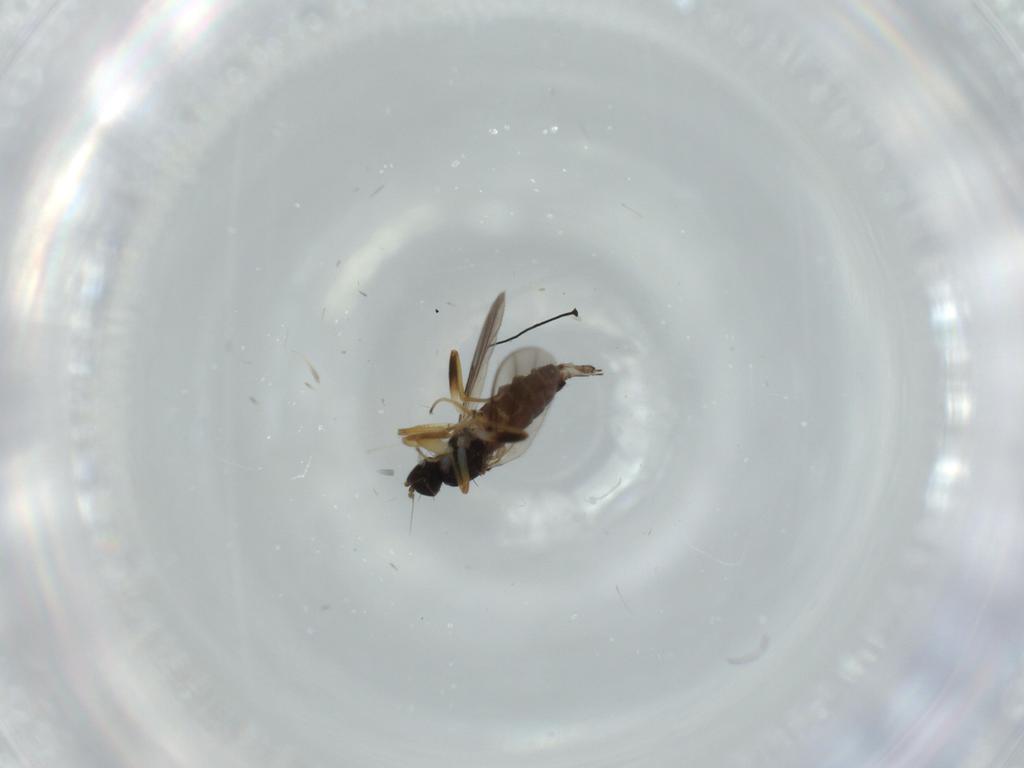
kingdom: Animalia
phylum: Arthropoda
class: Insecta
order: Diptera
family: Hybotidae
